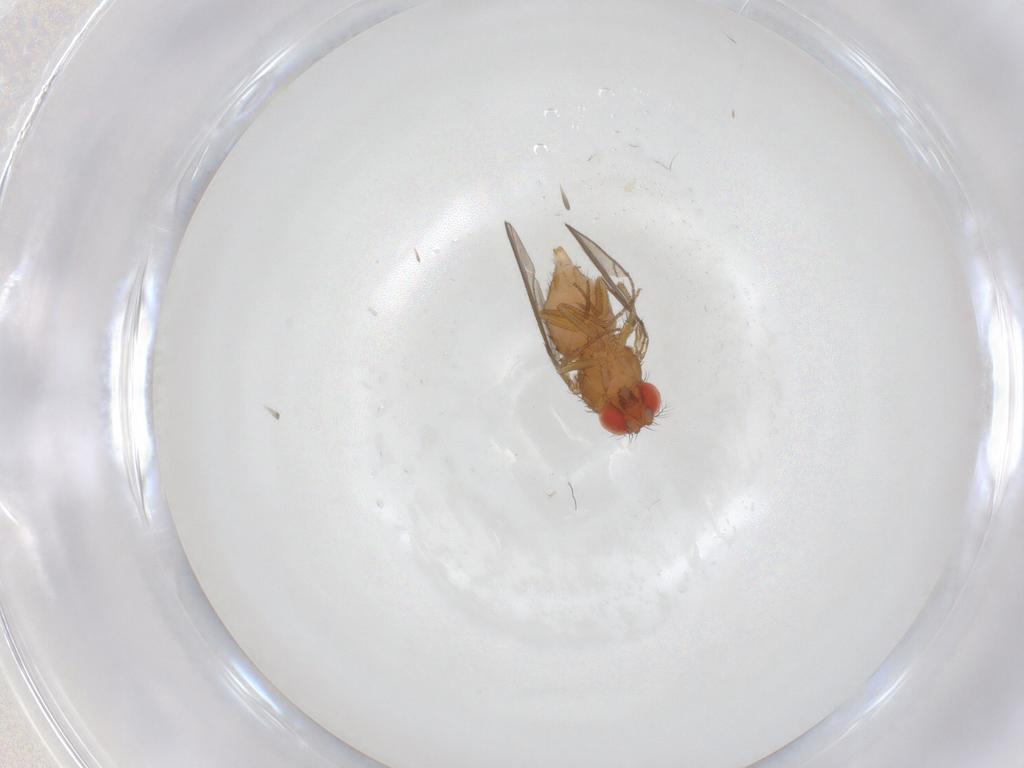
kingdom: Animalia
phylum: Arthropoda
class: Insecta
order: Diptera
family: Drosophilidae
